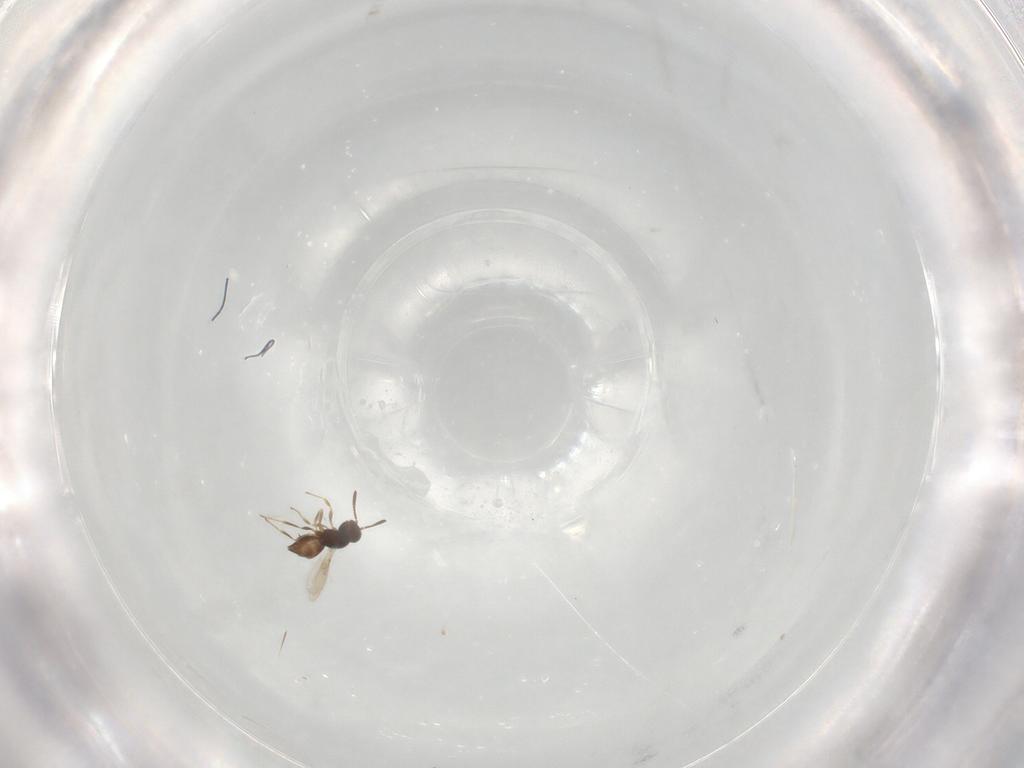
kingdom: Animalia
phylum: Arthropoda
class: Insecta
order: Hymenoptera
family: Scelionidae
